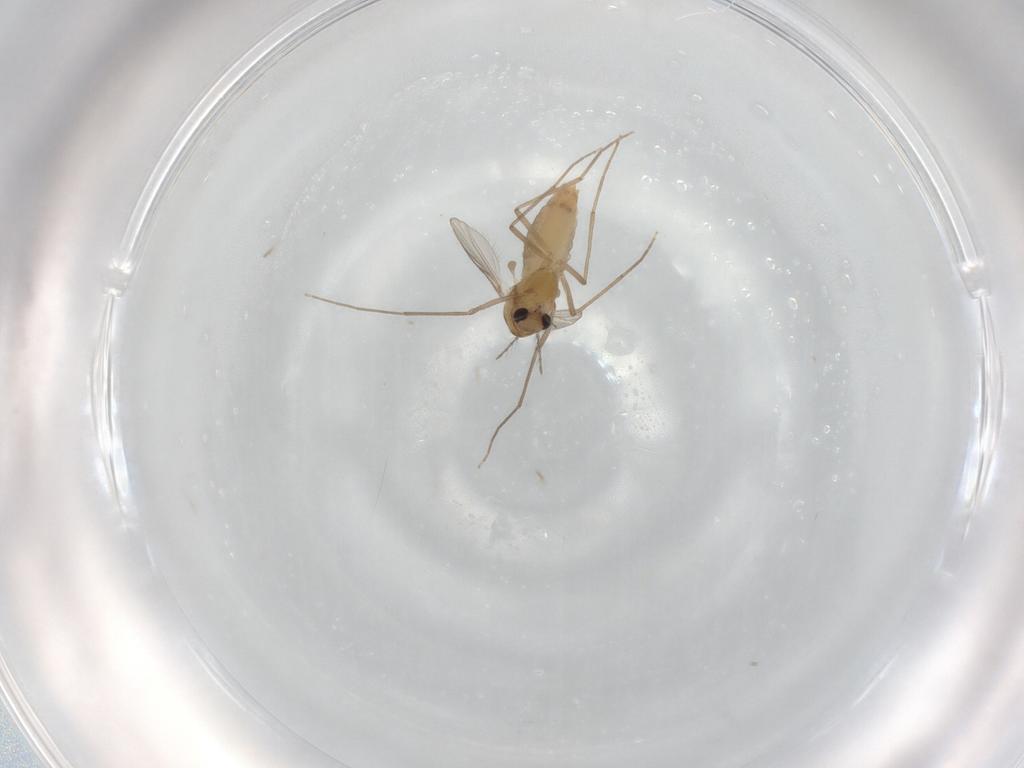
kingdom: Animalia
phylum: Arthropoda
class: Insecta
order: Diptera
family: Chironomidae
